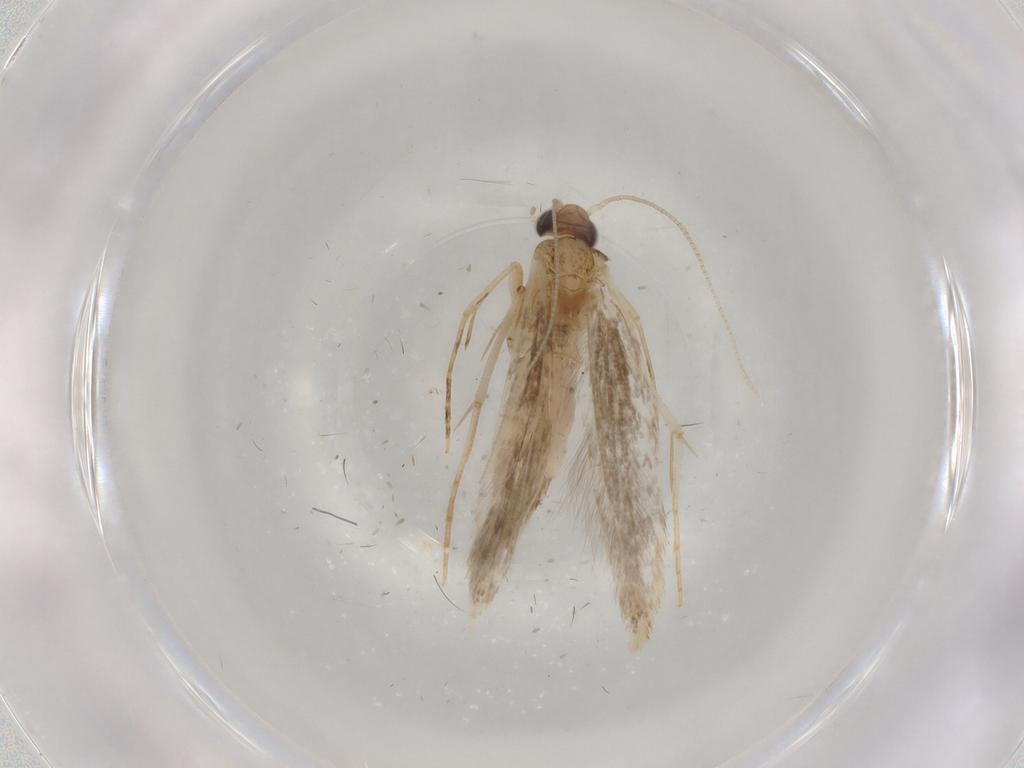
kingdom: Animalia
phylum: Arthropoda
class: Insecta
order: Lepidoptera
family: Tineidae
